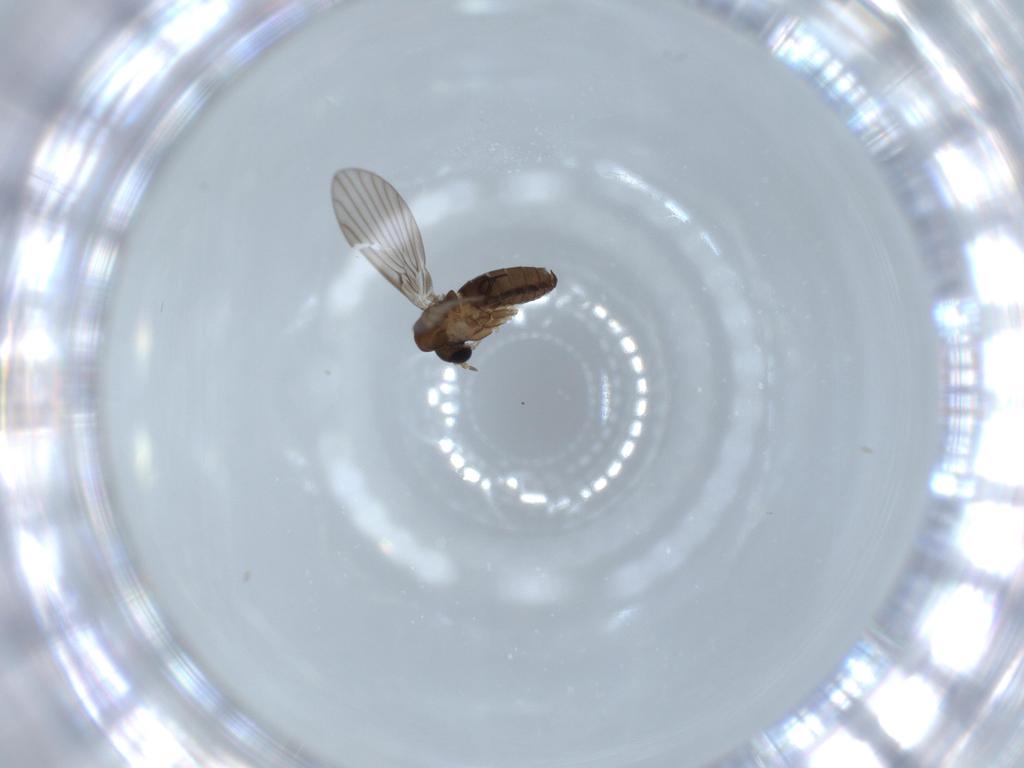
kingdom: Animalia
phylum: Arthropoda
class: Insecta
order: Diptera
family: Psychodidae
